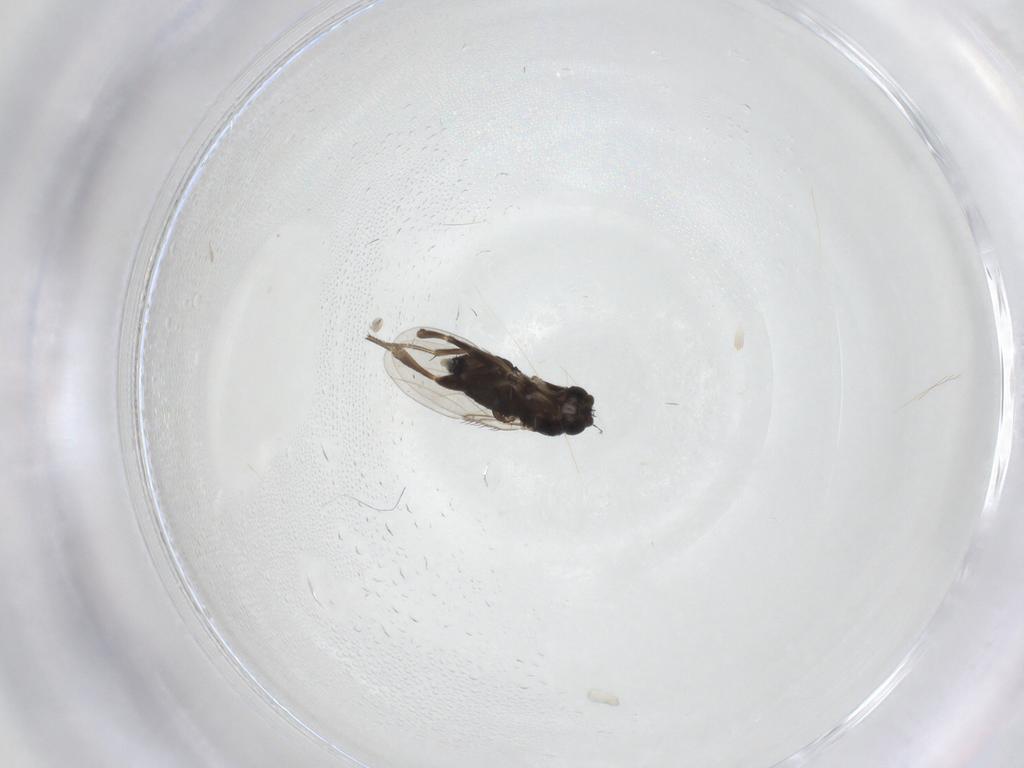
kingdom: Animalia
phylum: Arthropoda
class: Insecta
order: Diptera
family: Phoridae
